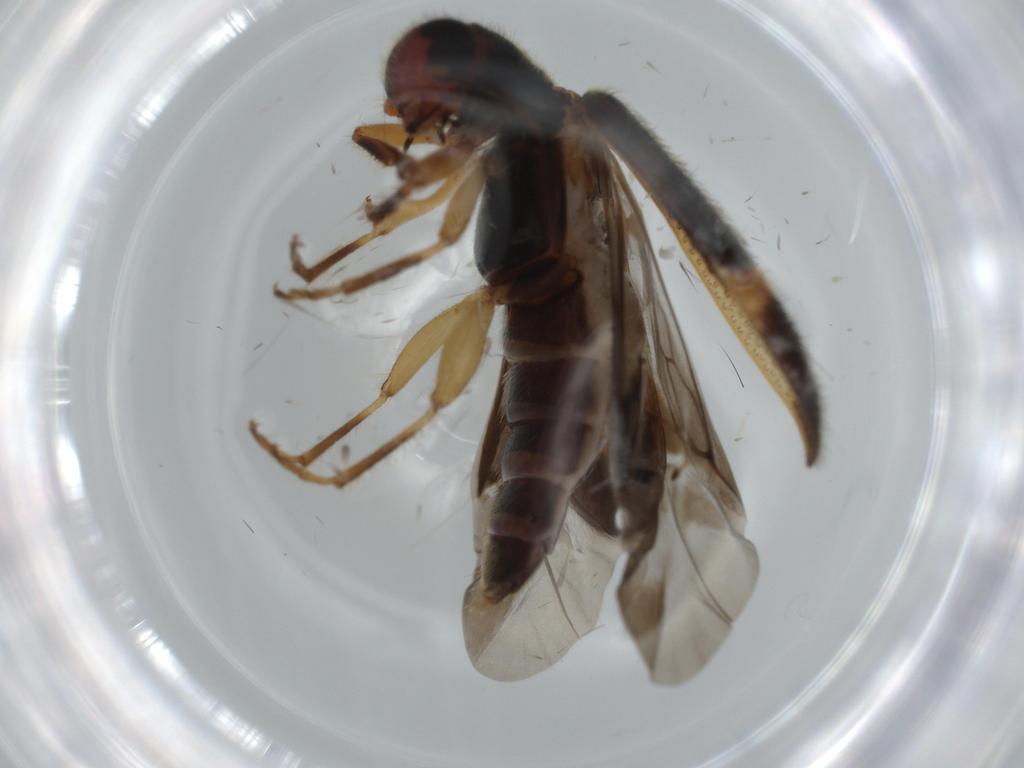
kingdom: Animalia
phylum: Arthropoda
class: Insecta
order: Coleoptera
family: Cleridae
